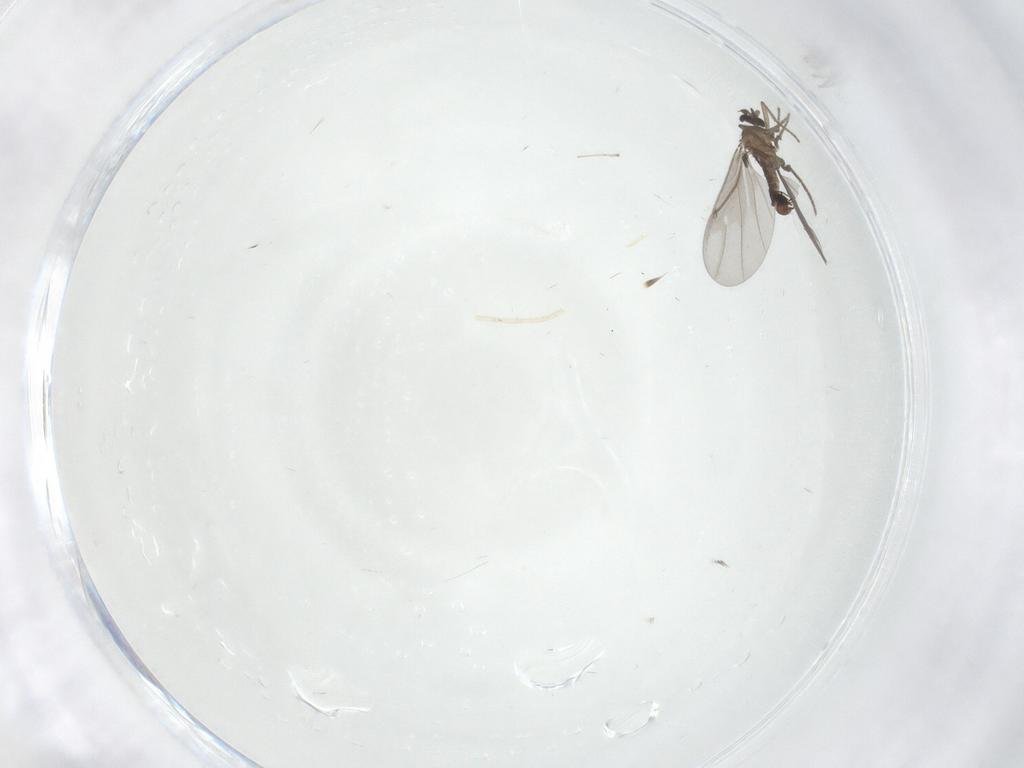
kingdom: Animalia
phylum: Arthropoda
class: Insecta
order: Diptera
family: Phoridae
